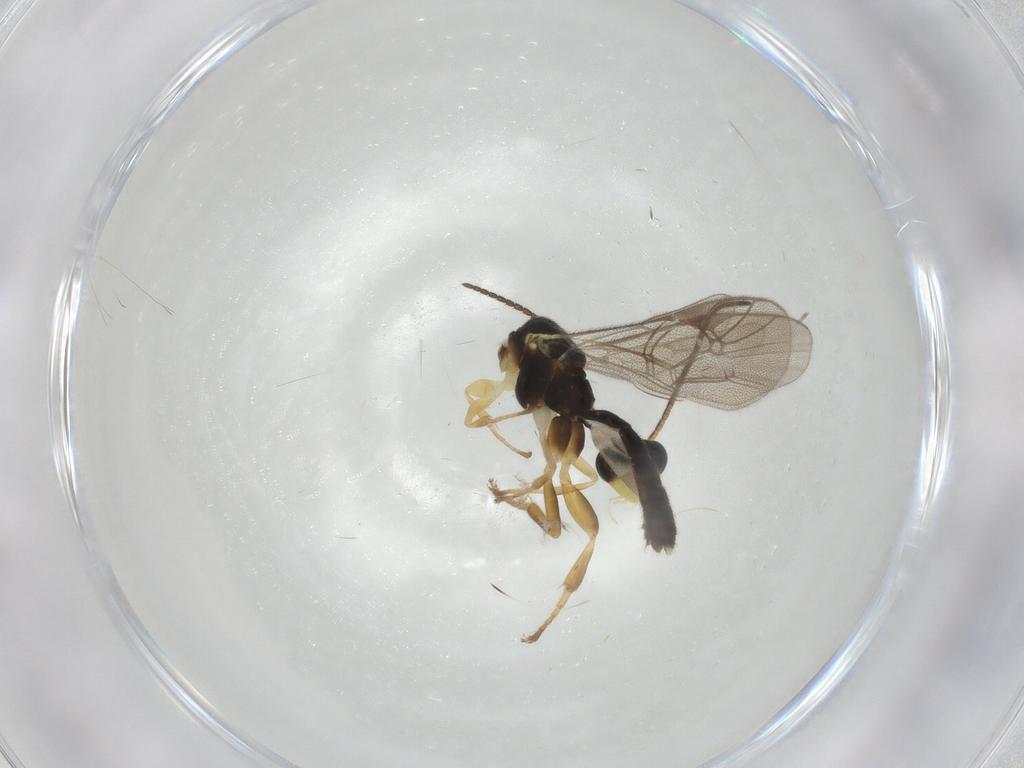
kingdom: Animalia
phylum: Arthropoda
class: Insecta
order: Hymenoptera
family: Ichneumonidae
